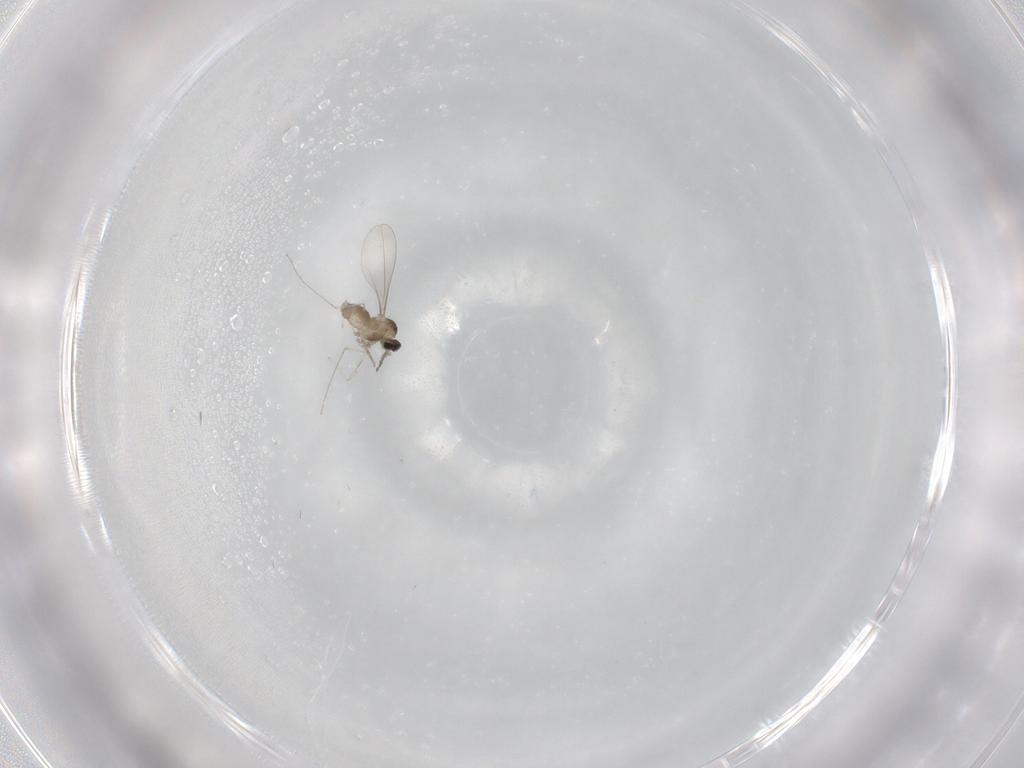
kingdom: Animalia
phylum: Arthropoda
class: Insecta
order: Diptera
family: Cecidomyiidae
